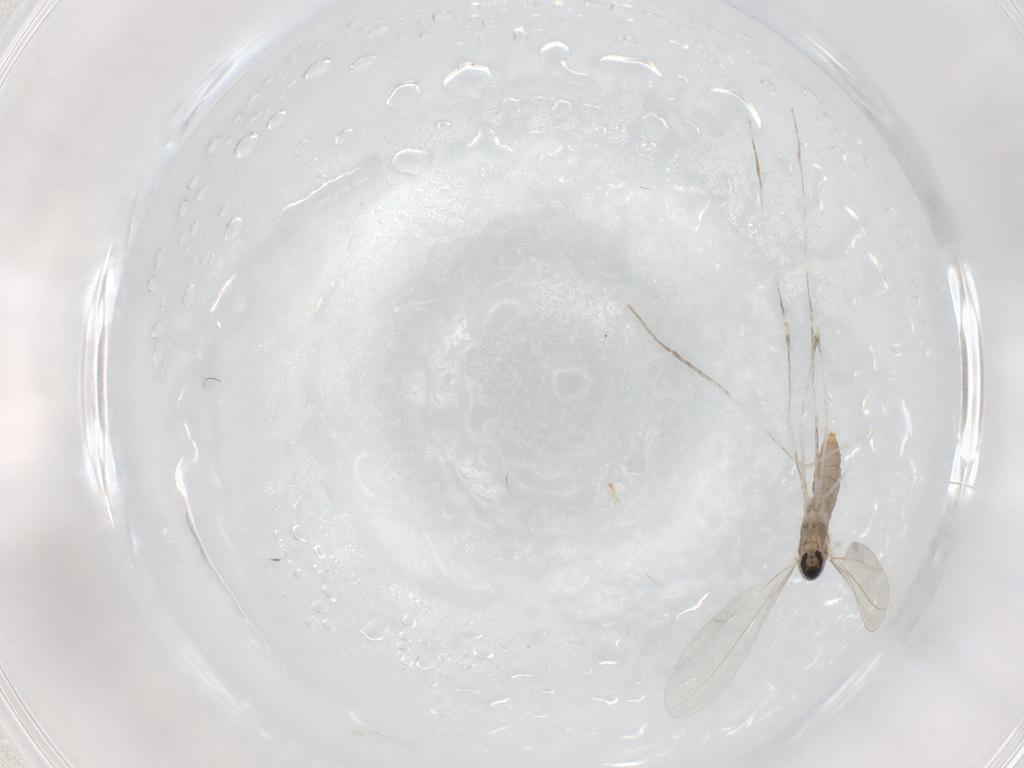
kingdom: Animalia
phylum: Arthropoda
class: Insecta
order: Diptera
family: Cecidomyiidae
